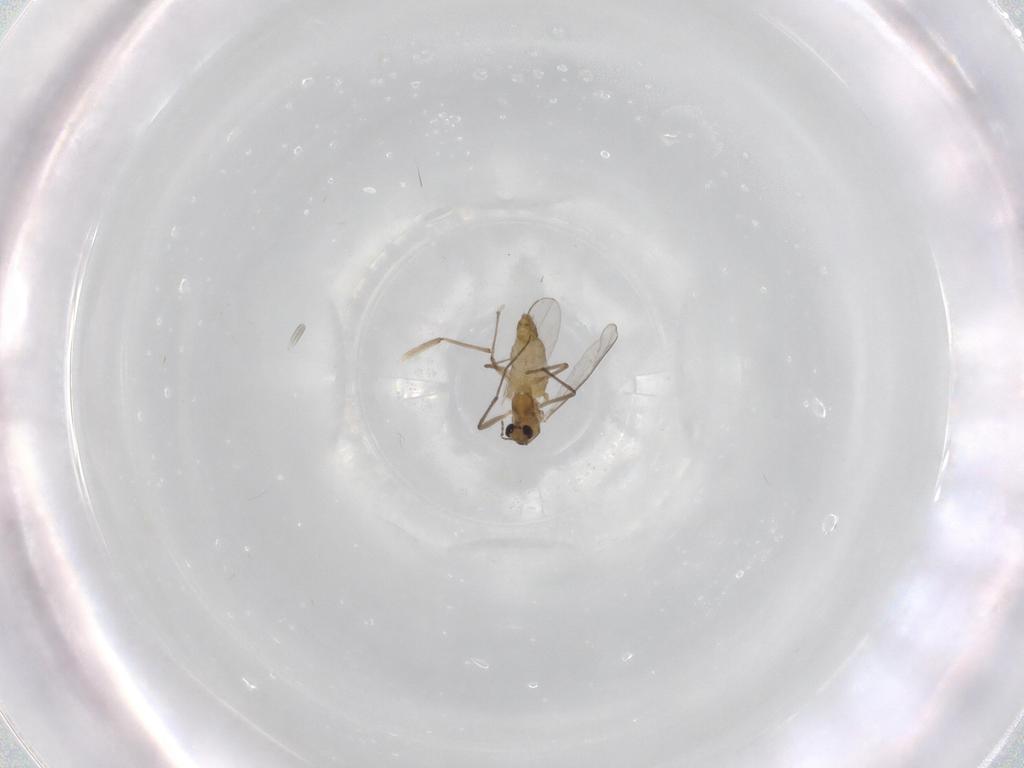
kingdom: Animalia
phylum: Arthropoda
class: Insecta
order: Diptera
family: Chironomidae
